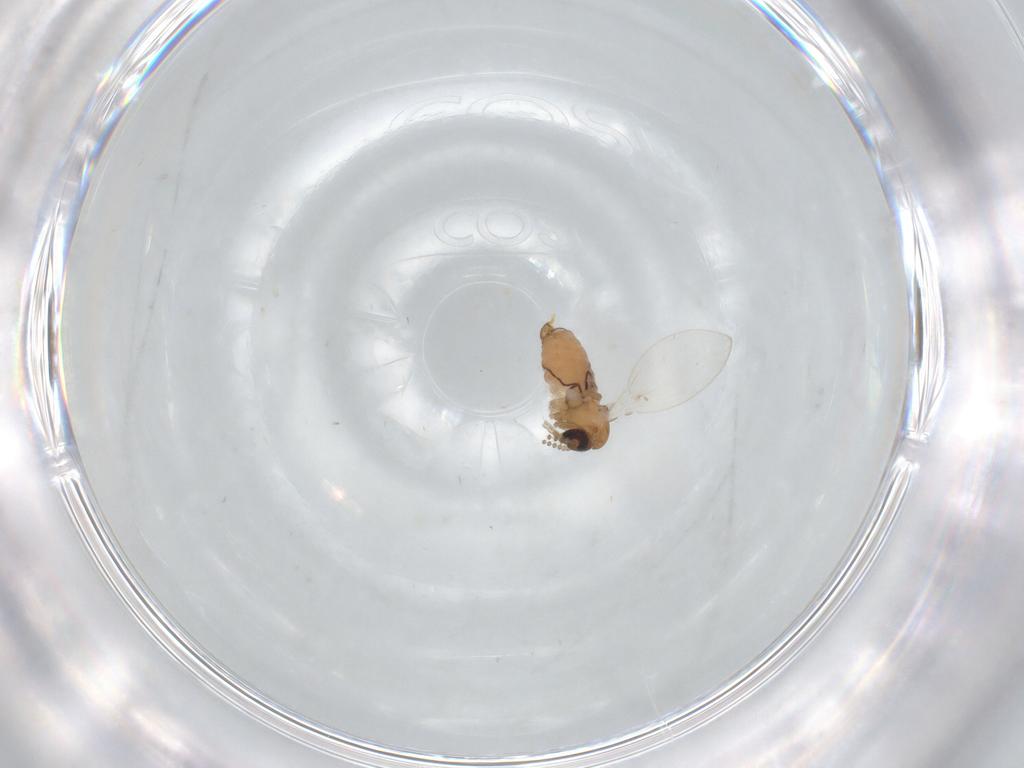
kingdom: Animalia
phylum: Arthropoda
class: Insecta
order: Diptera
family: Psychodidae
